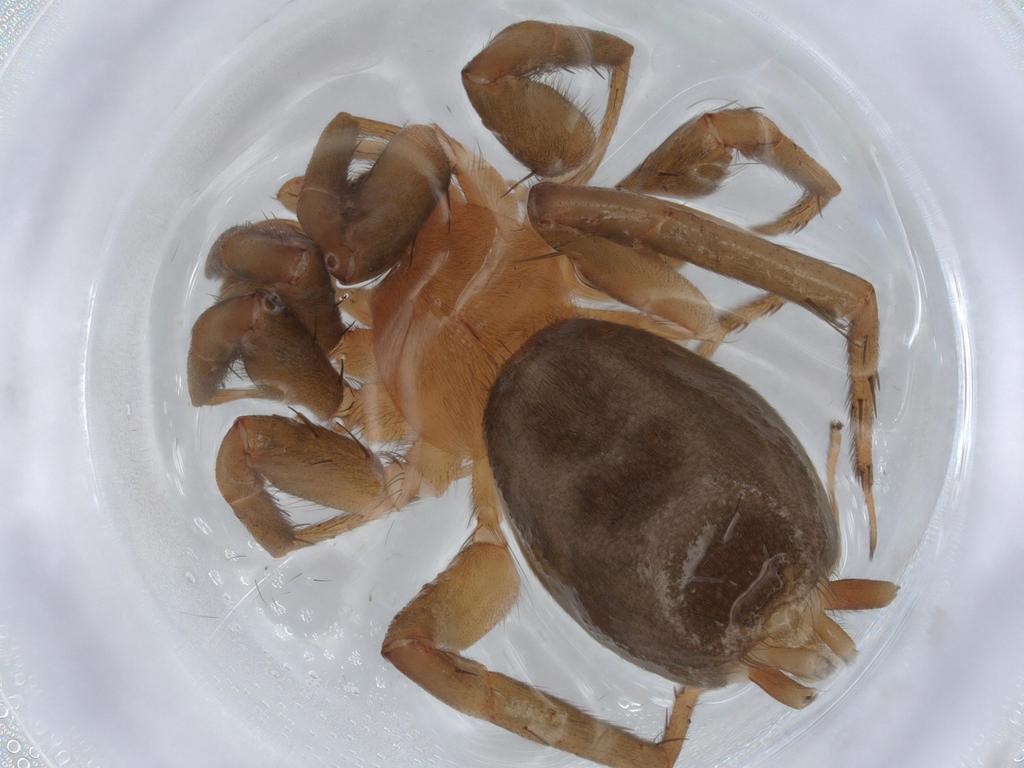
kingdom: Animalia
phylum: Arthropoda
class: Arachnida
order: Araneae
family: Gnaphosidae
